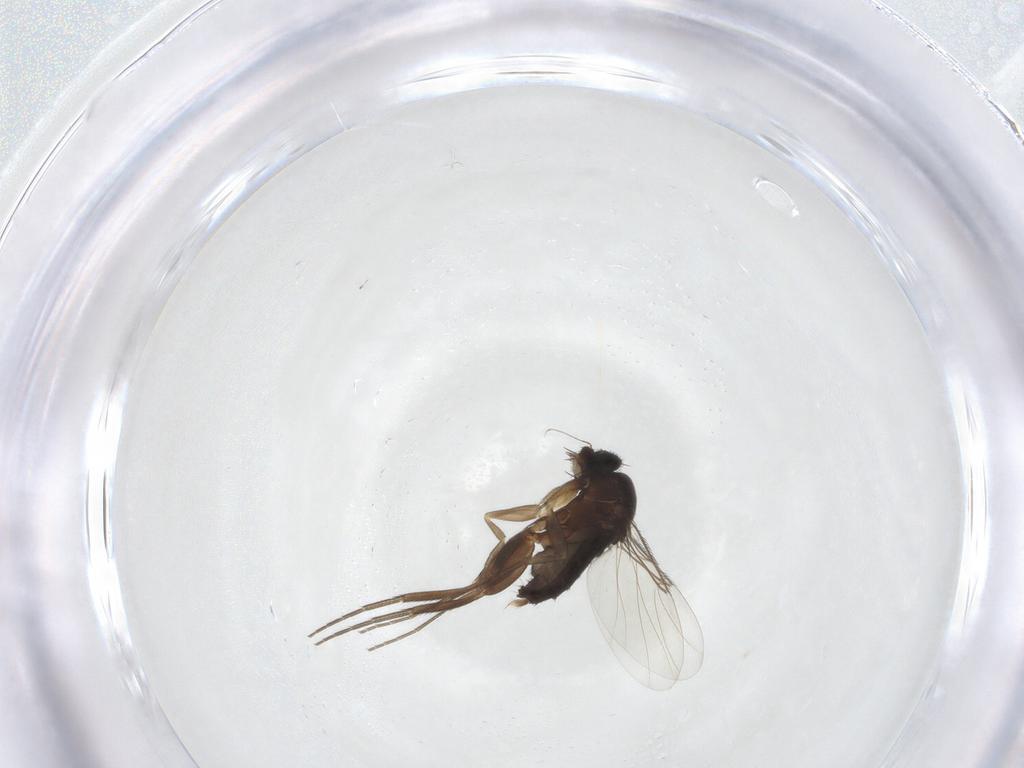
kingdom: Animalia
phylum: Arthropoda
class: Insecta
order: Diptera
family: Phoridae
